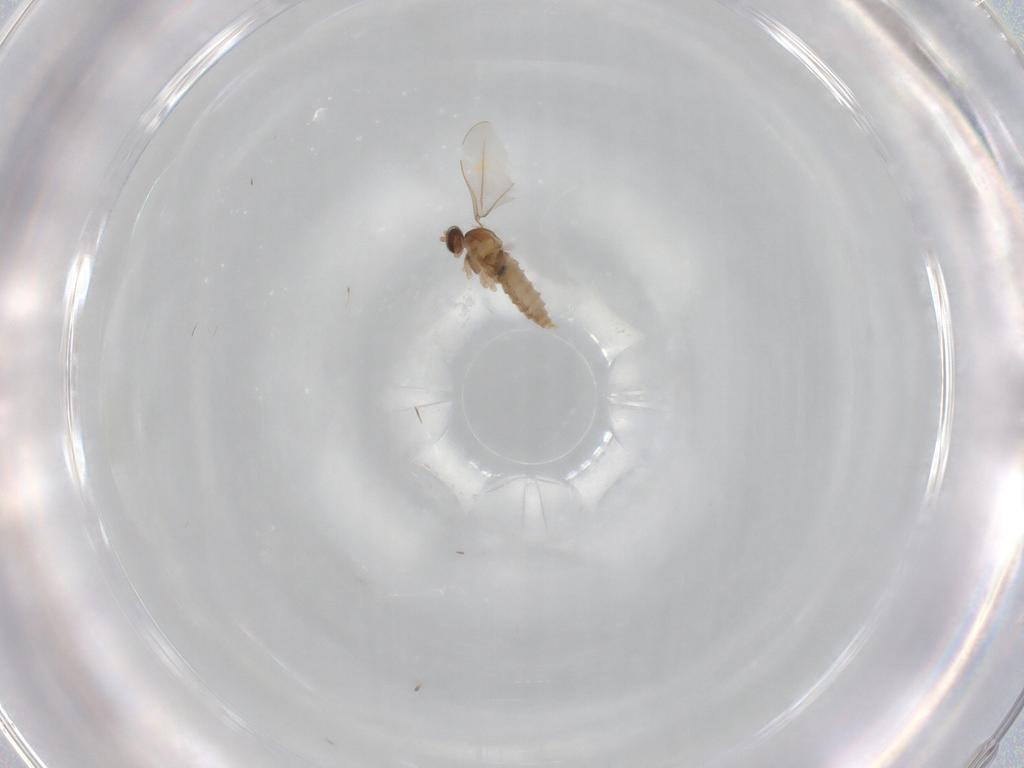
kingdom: Animalia
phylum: Arthropoda
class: Insecta
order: Diptera
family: Cecidomyiidae
